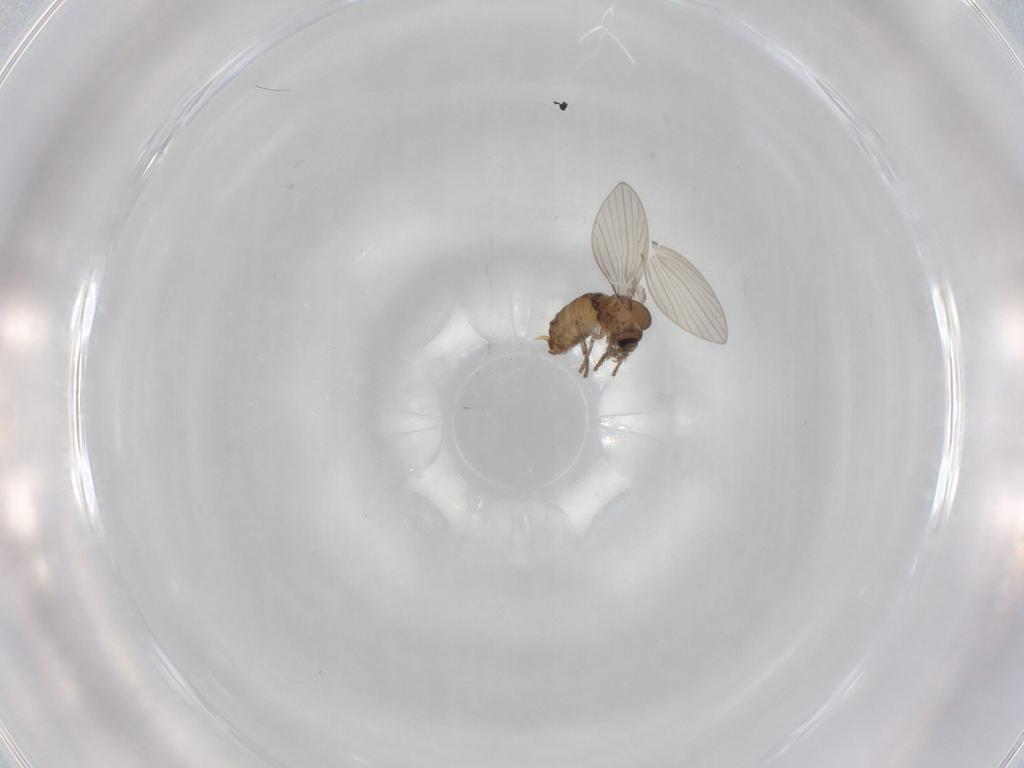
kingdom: Animalia
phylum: Arthropoda
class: Insecta
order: Diptera
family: Psychodidae
